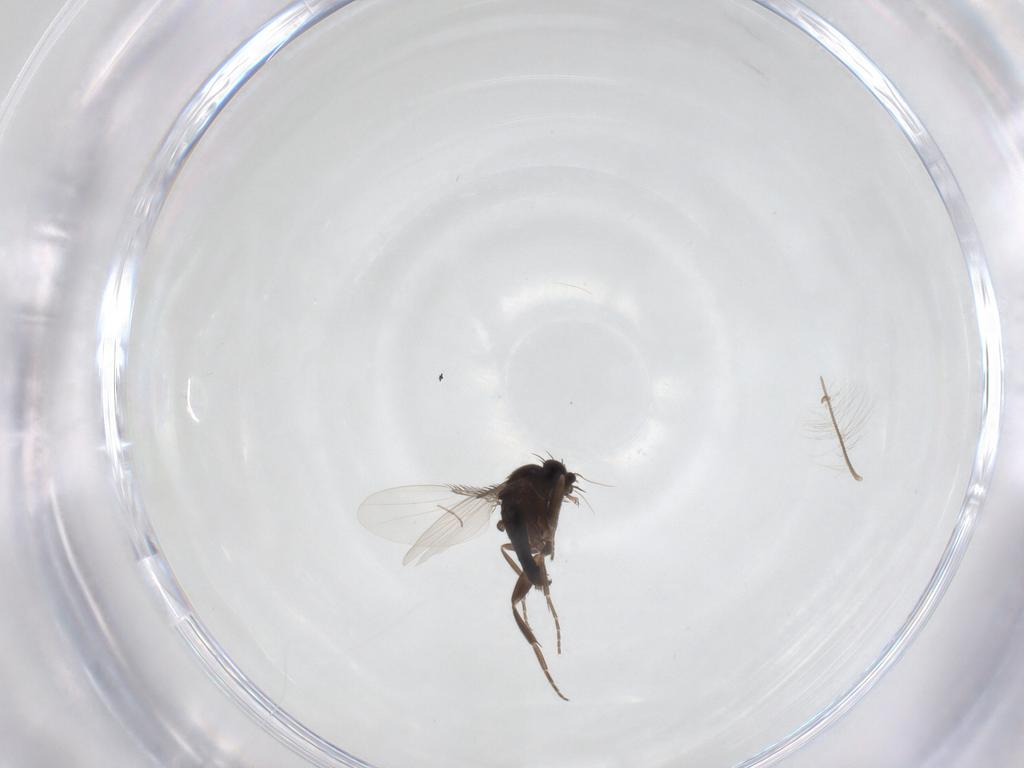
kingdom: Animalia
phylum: Arthropoda
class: Insecta
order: Diptera
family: Phoridae
